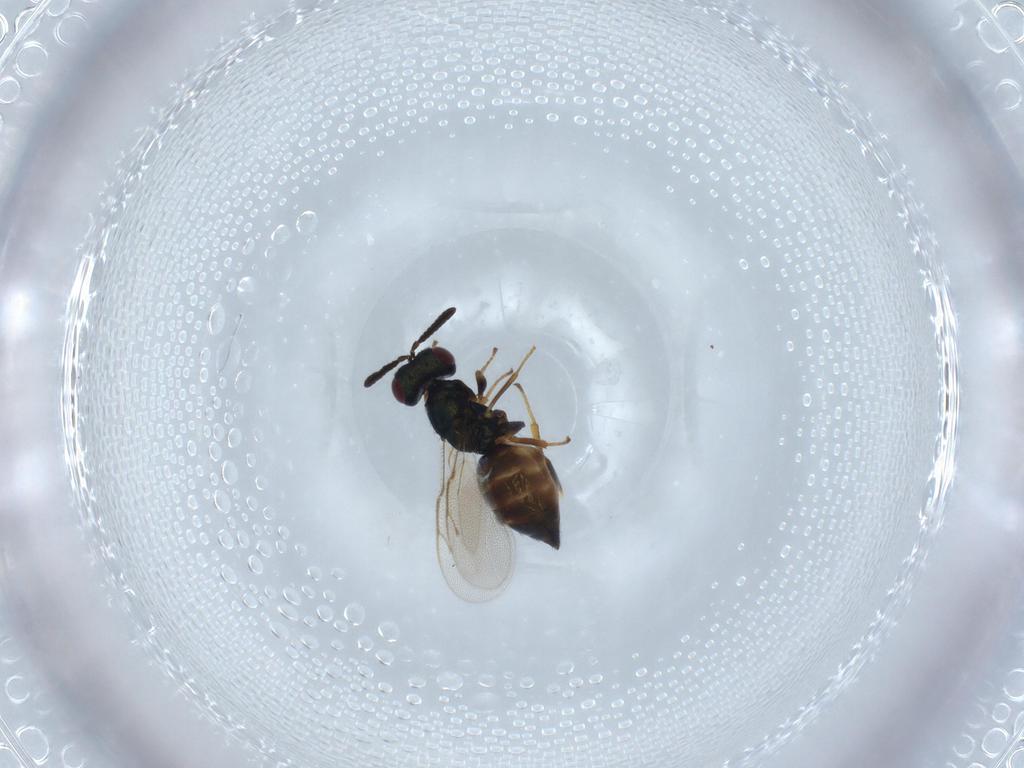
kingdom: Animalia
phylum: Arthropoda
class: Insecta
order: Hymenoptera
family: Pteromalidae
